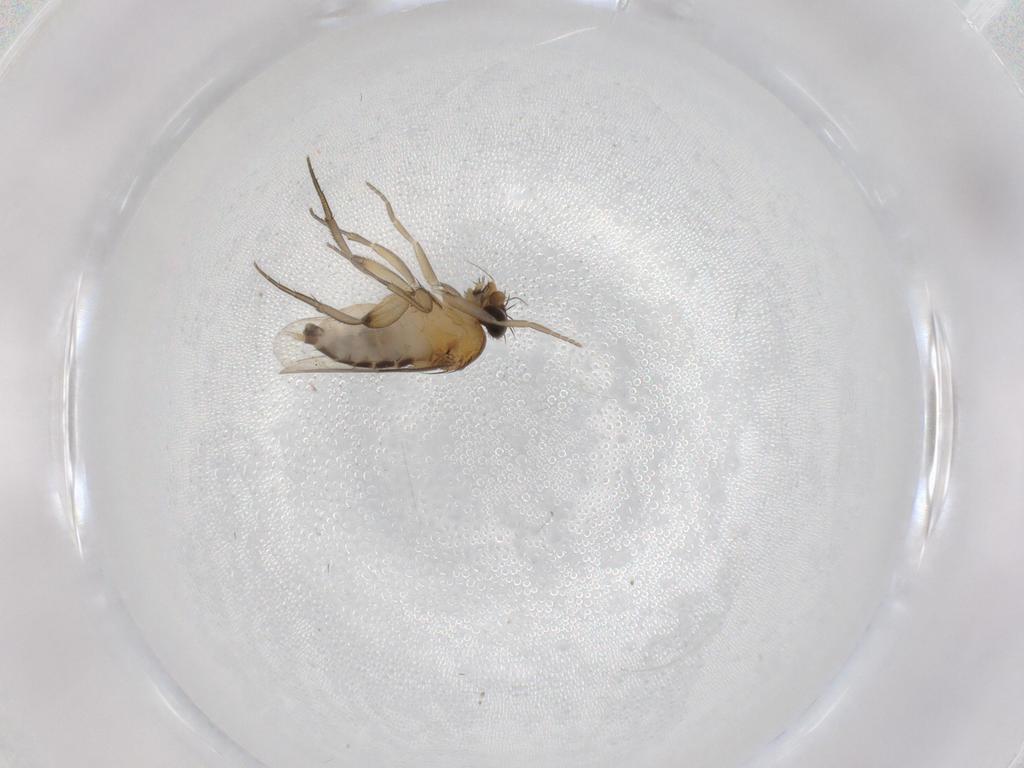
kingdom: Animalia
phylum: Arthropoda
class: Insecta
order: Diptera
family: Phoridae
